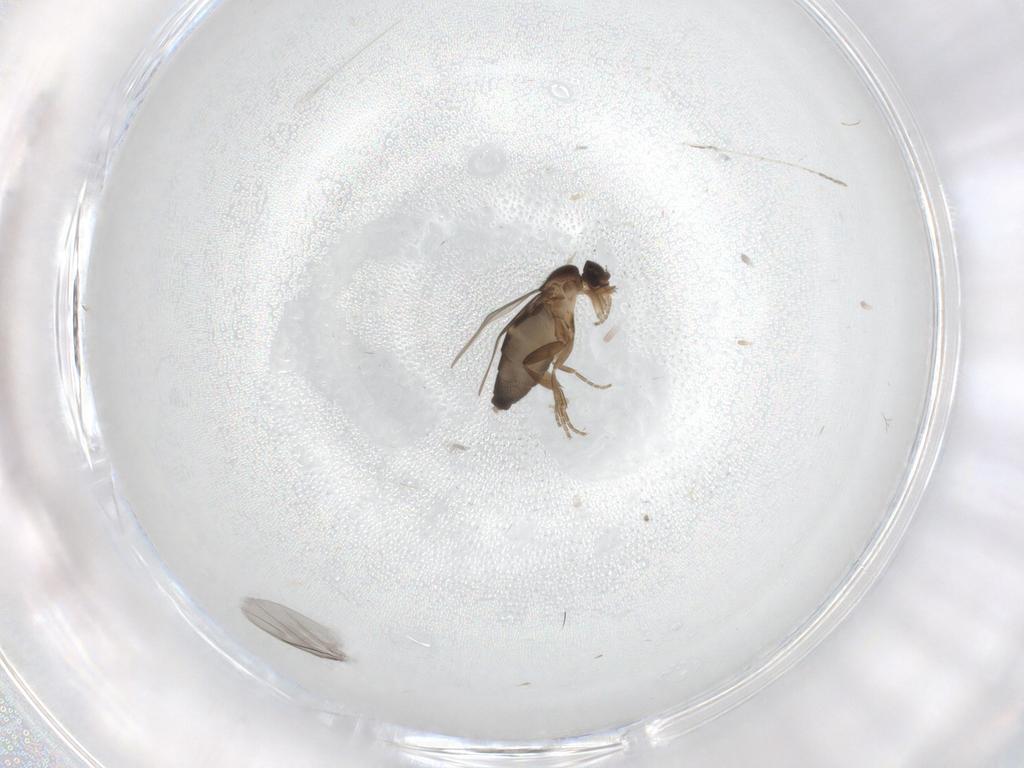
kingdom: Animalia
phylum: Arthropoda
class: Insecta
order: Diptera
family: Phoridae
